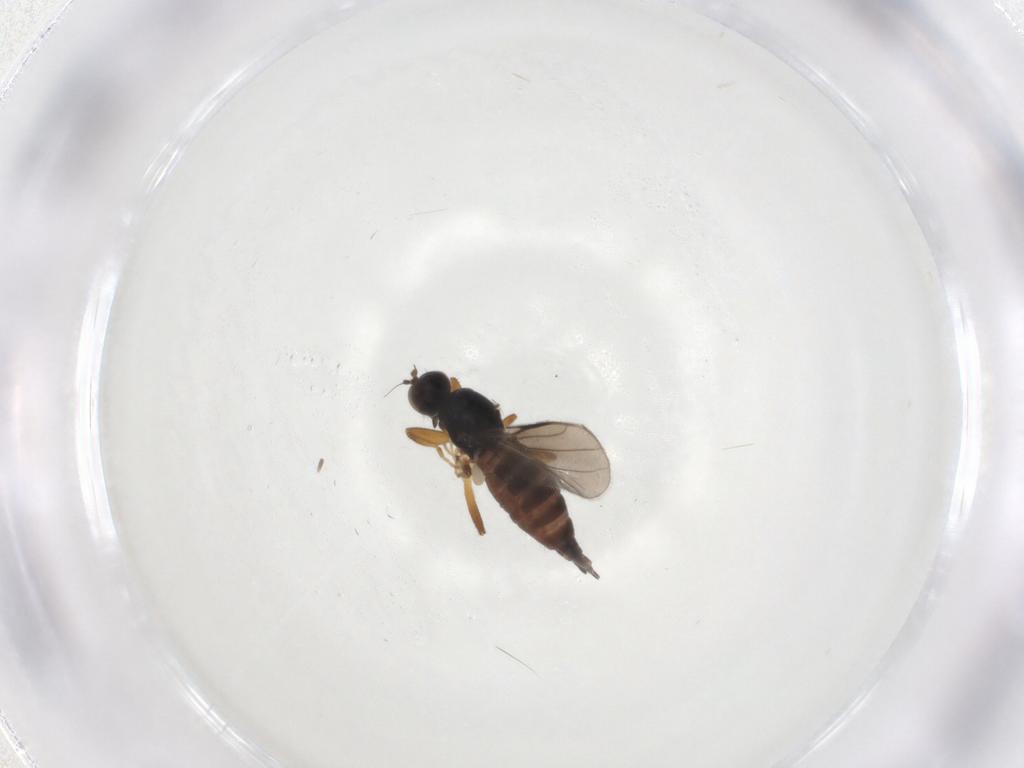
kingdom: Animalia
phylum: Arthropoda
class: Insecta
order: Diptera
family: Hybotidae
